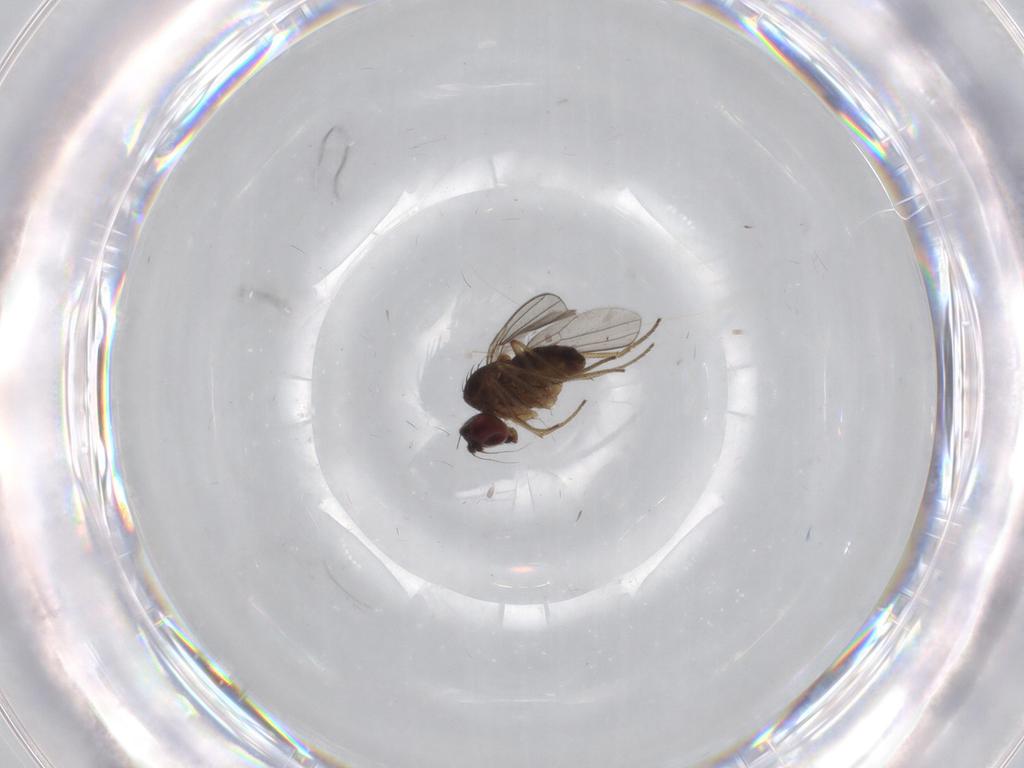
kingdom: Animalia
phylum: Arthropoda
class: Insecta
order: Diptera
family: Dolichopodidae
